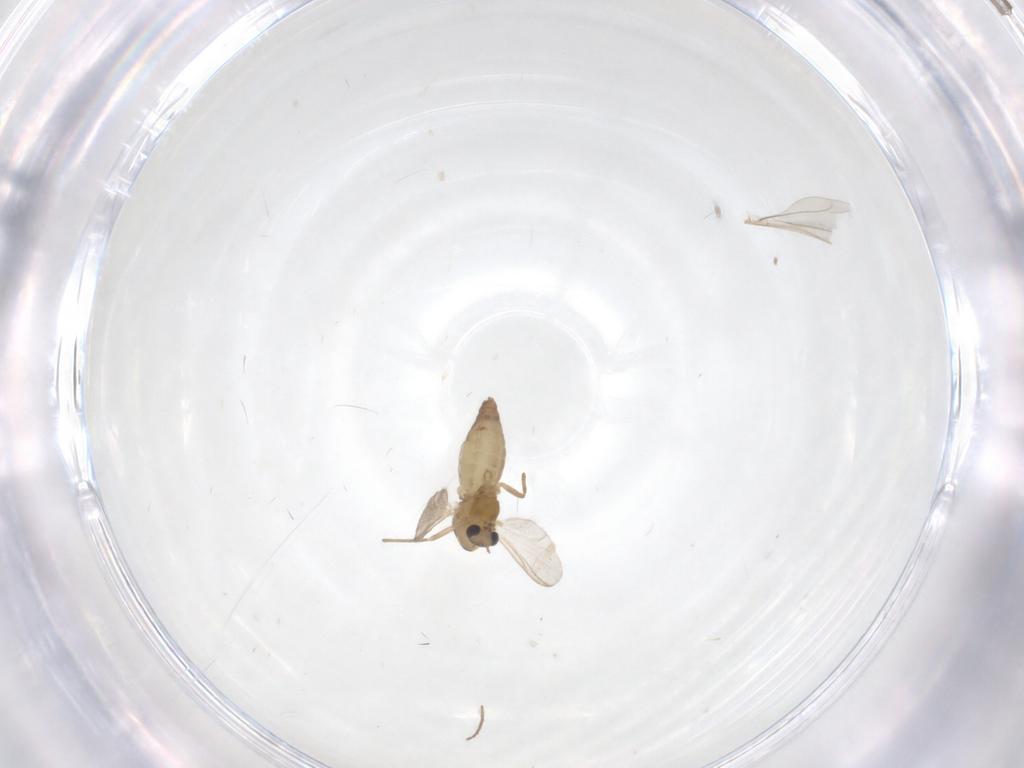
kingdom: Animalia
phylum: Arthropoda
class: Insecta
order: Diptera
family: Chironomidae
